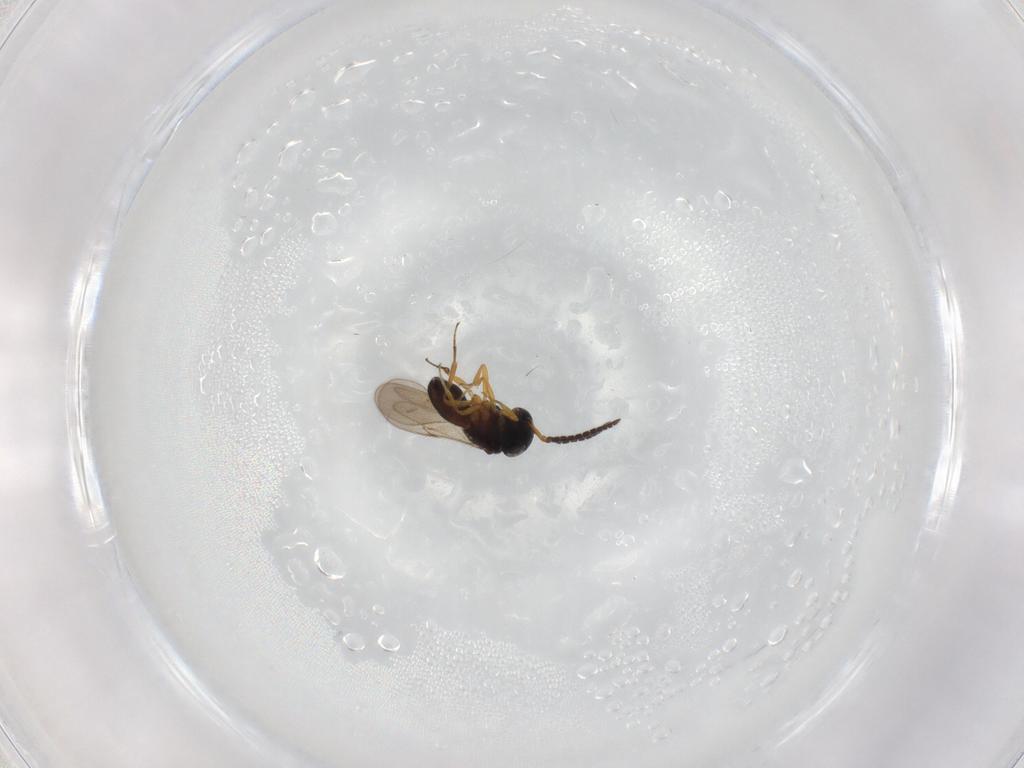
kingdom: Animalia
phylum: Arthropoda
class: Insecta
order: Hymenoptera
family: Scelionidae
